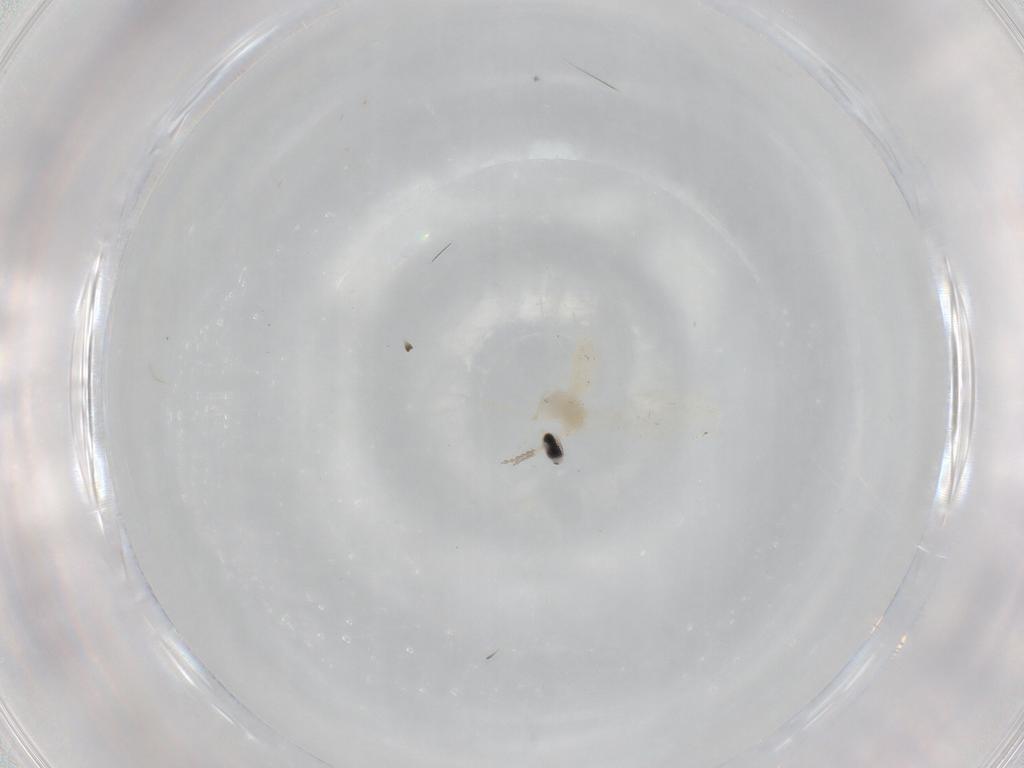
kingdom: Animalia
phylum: Arthropoda
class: Insecta
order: Diptera
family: Cecidomyiidae
